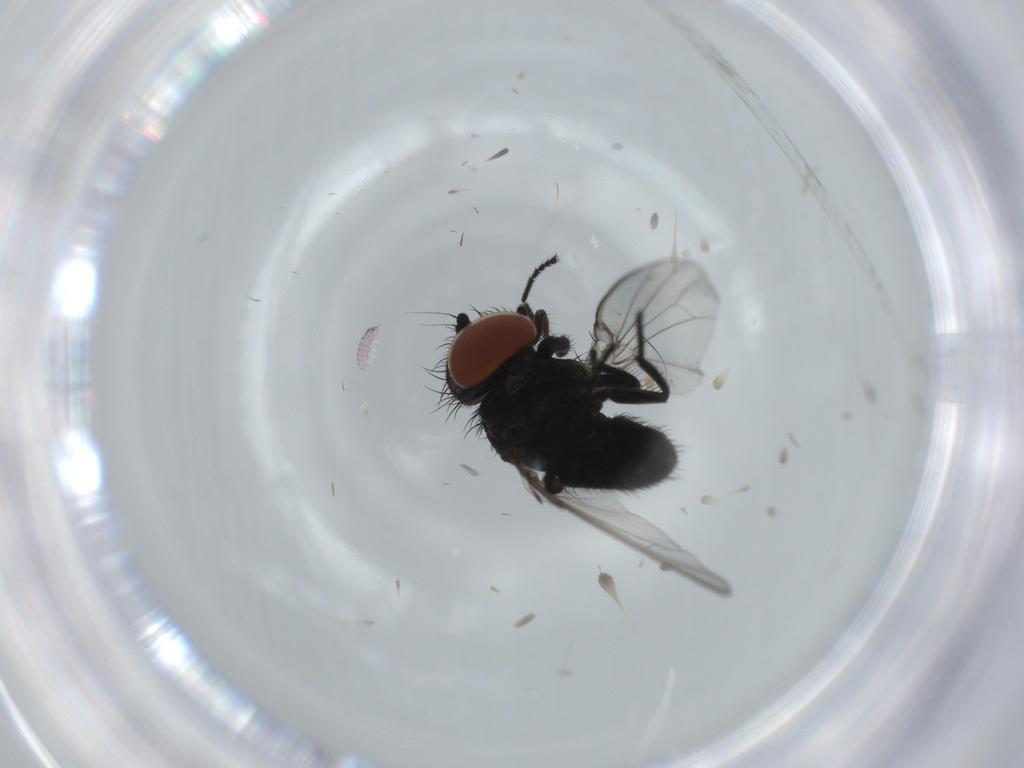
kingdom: Animalia
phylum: Arthropoda
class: Insecta
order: Diptera
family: Milichiidae
